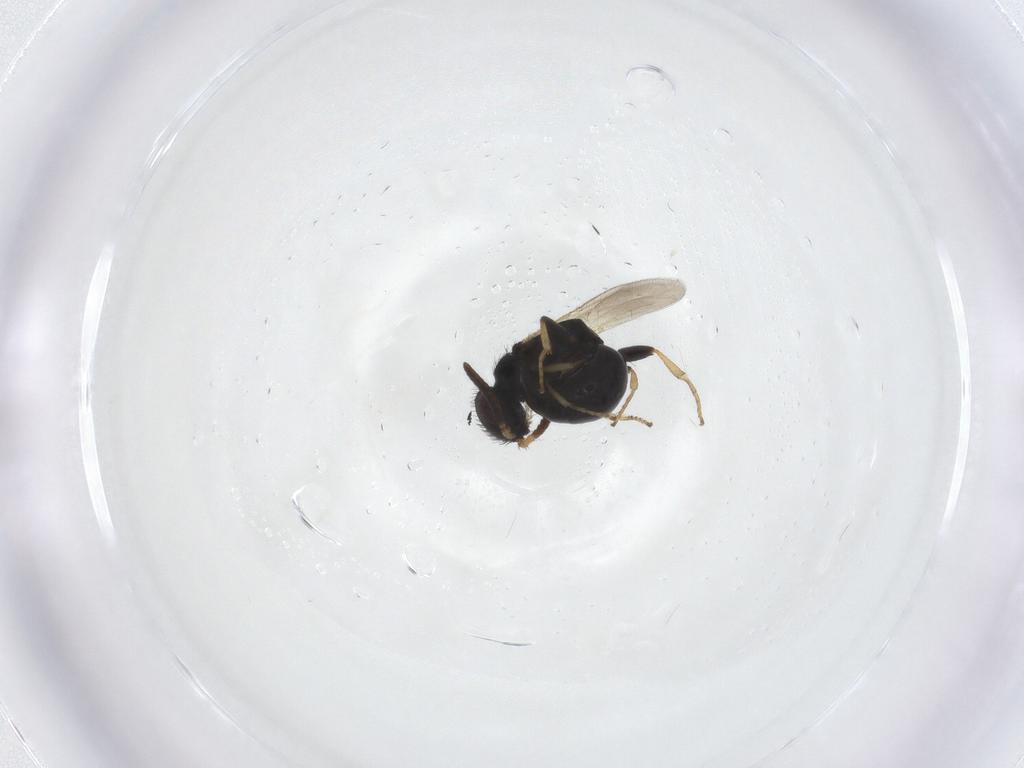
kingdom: Animalia
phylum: Arthropoda
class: Insecta
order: Hymenoptera
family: Bethylidae
